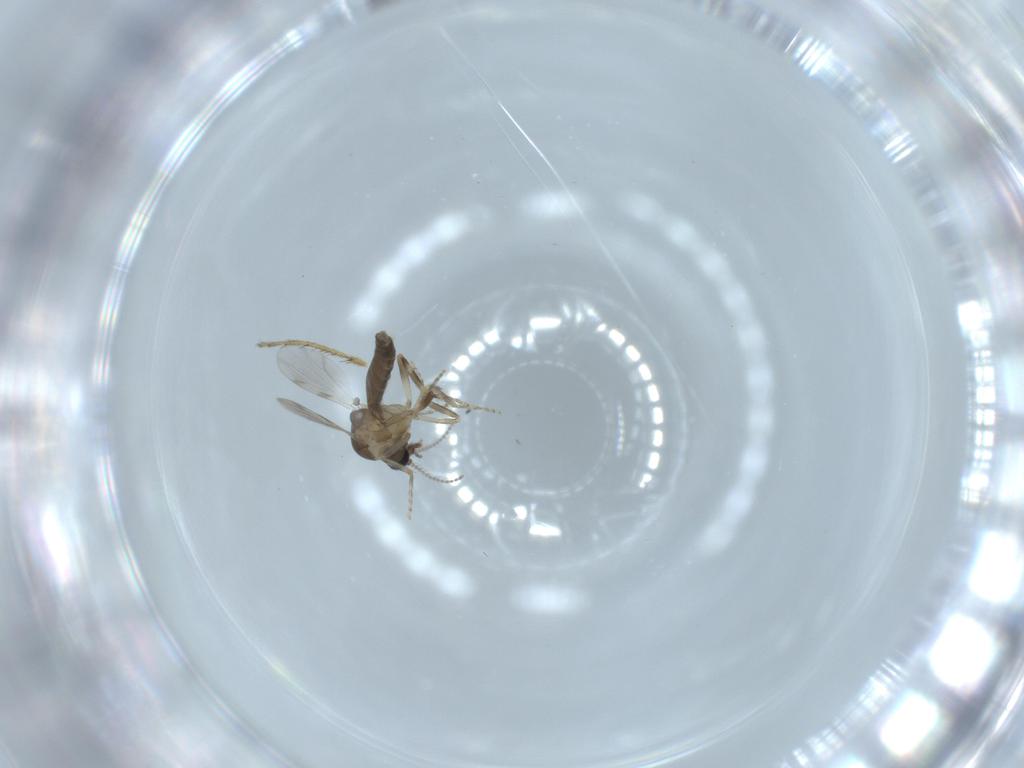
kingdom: Animalia
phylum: Arthropoda
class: Insecta
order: Diptera
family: Ceratopogonidae
